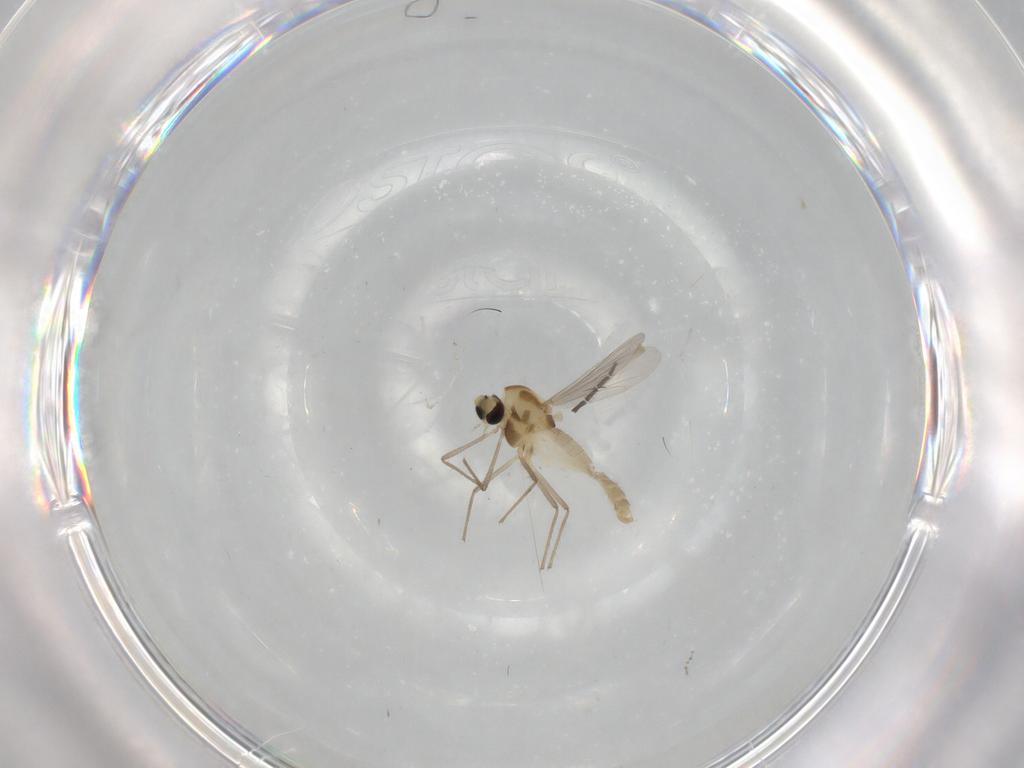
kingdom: Animalia
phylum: Arthropoda
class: Insecta
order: Diptera
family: Sciaridae
